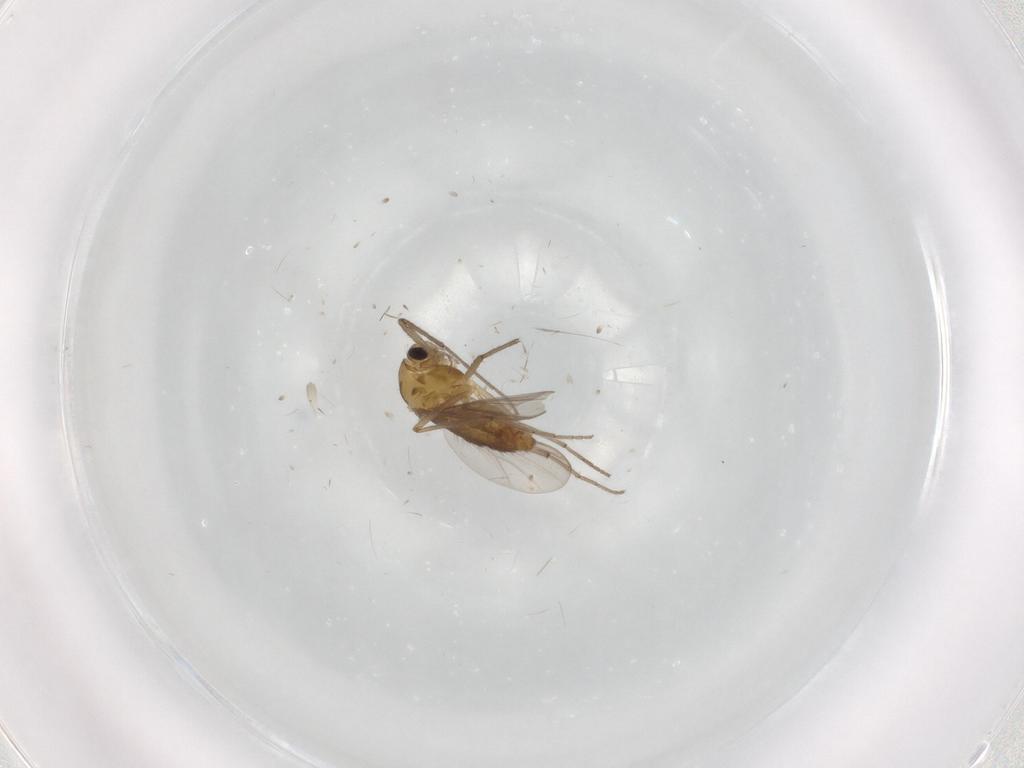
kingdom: Animalia
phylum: Arthropoda
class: Insecta
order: Diptera
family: Chironomidae
